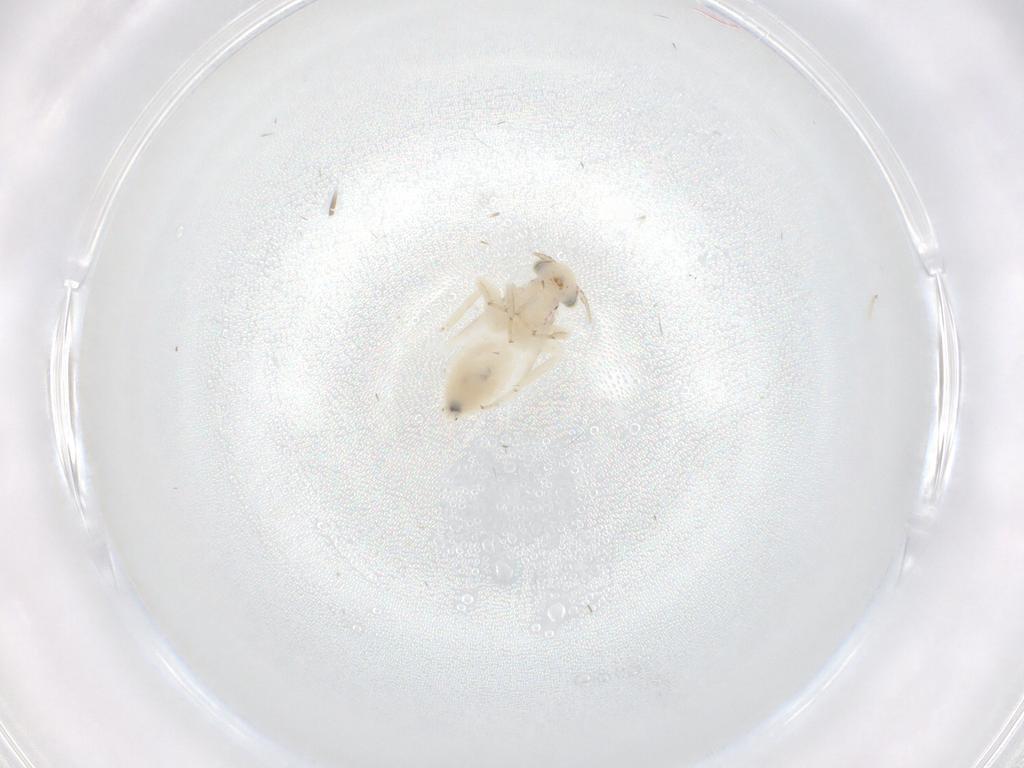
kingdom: Animalia
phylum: Arthropoda
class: Insecta
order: Psocodea
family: Lepidopsocidae
